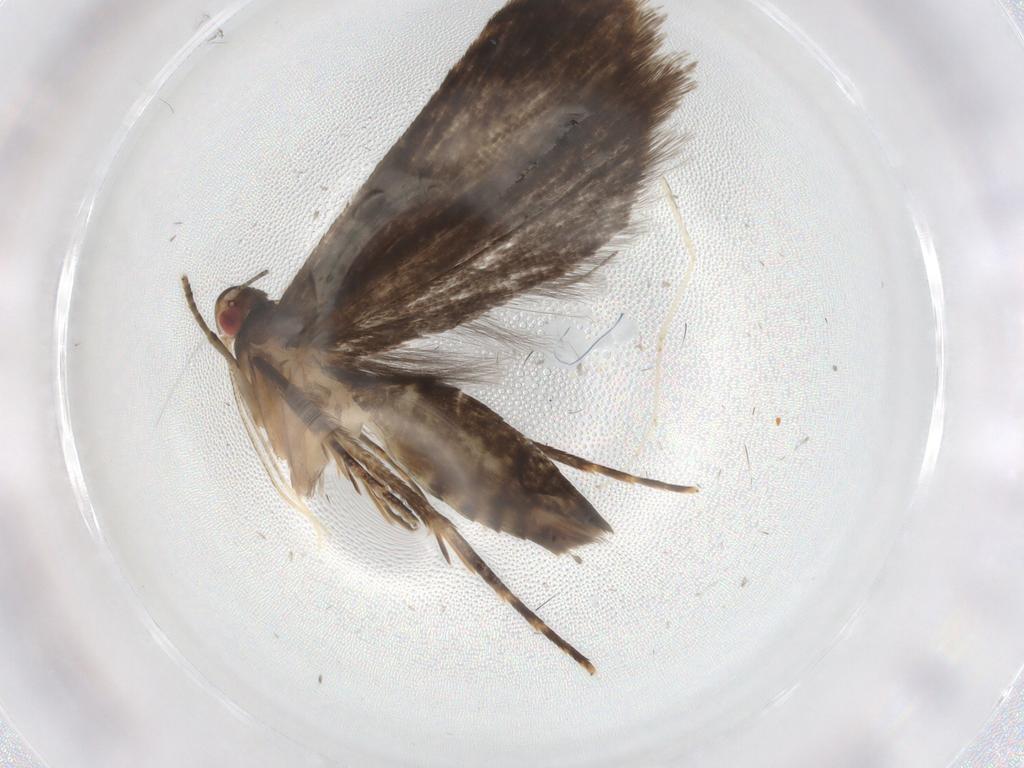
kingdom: Animalia
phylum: Arthropoda
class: Insecta
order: Lepidoptera
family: Gelechiidae
